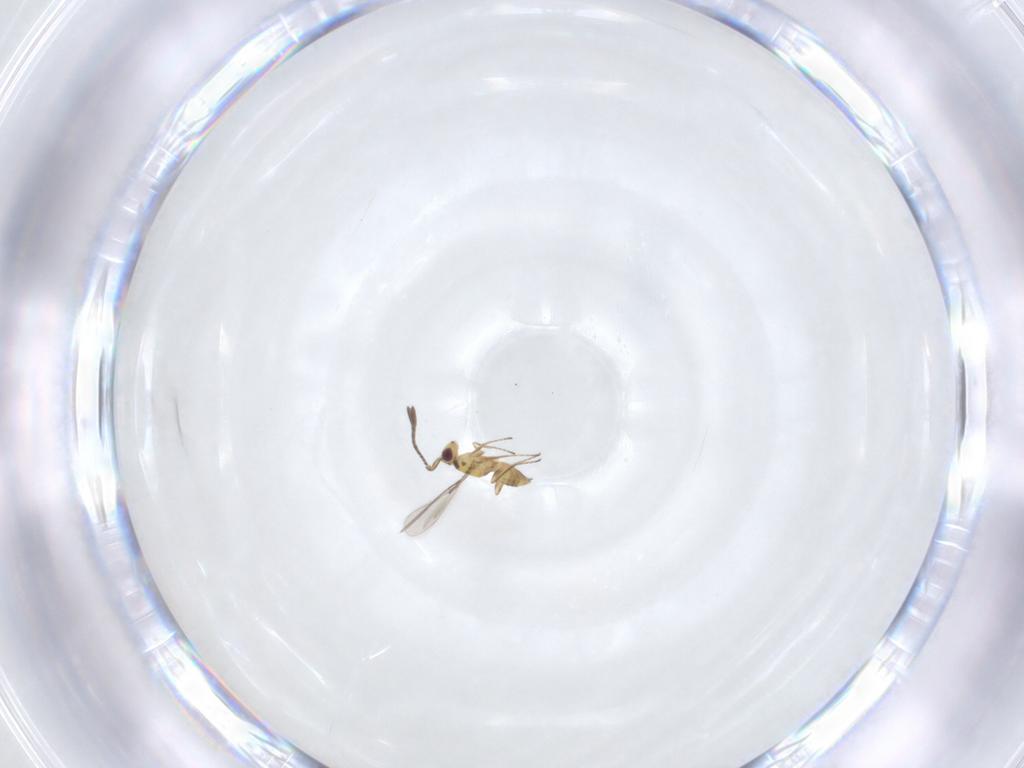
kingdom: Animalia
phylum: Arthropoda
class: Insecta
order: Hymenoptera
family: Mymaridae
